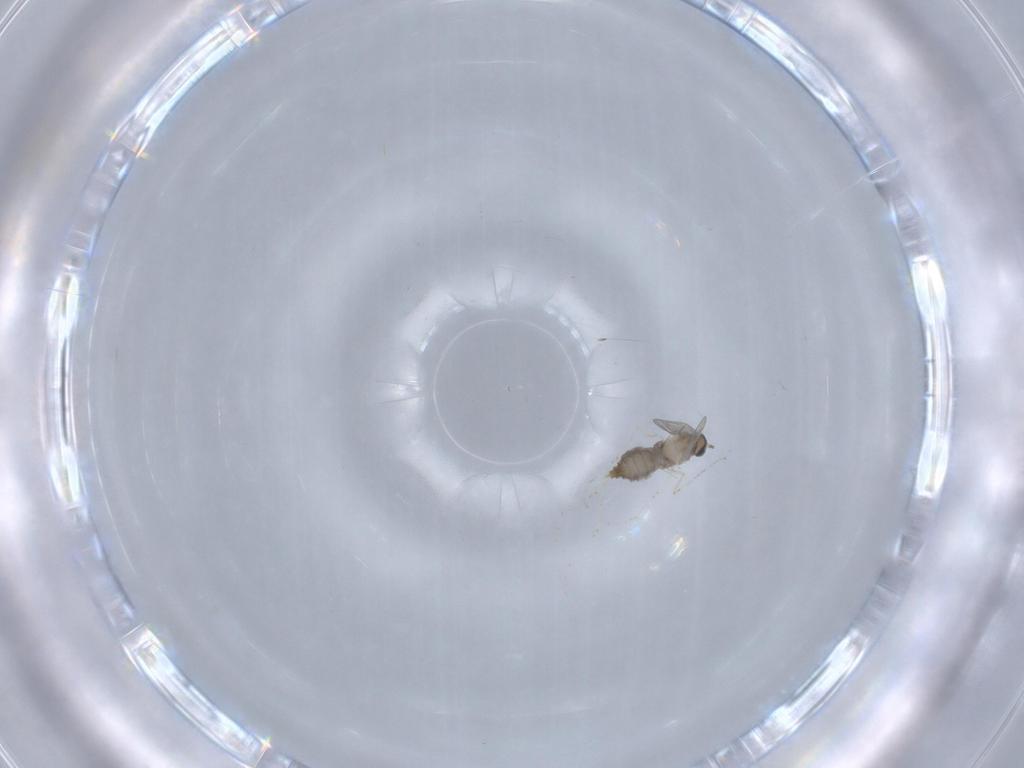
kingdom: Animalia
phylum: Arthropoda
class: Insecta
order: Diptera
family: Cecidomyiidae
